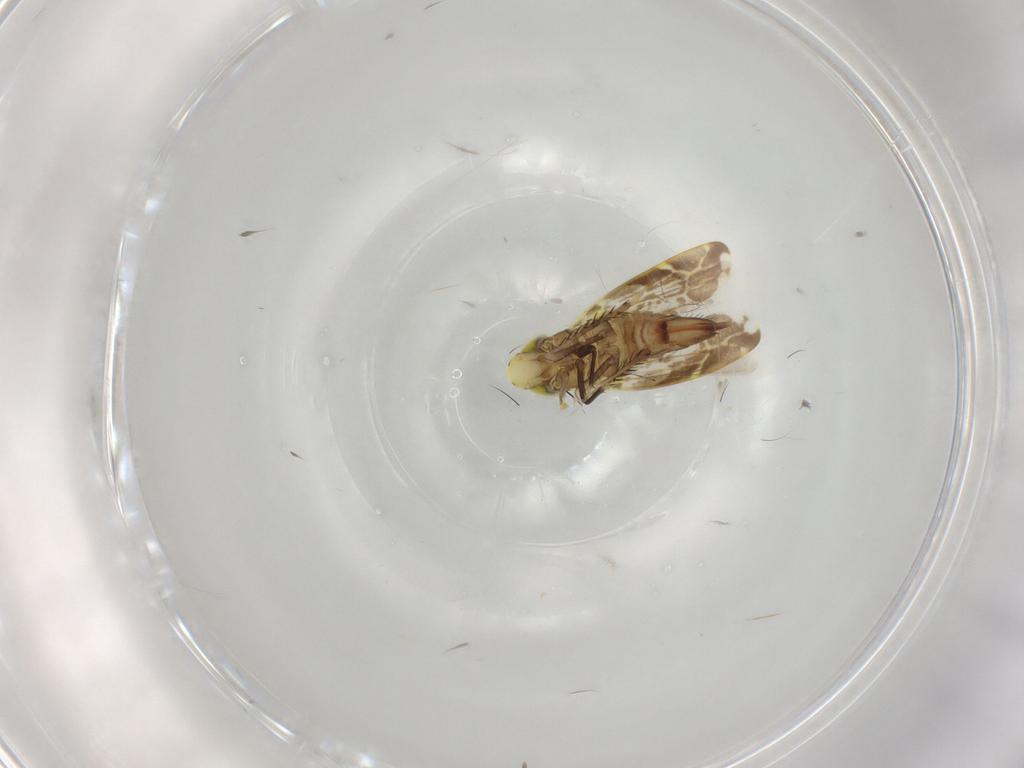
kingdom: Animalia
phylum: Arthropoda
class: Insecta
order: Hemiptera
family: Cicadellidae
